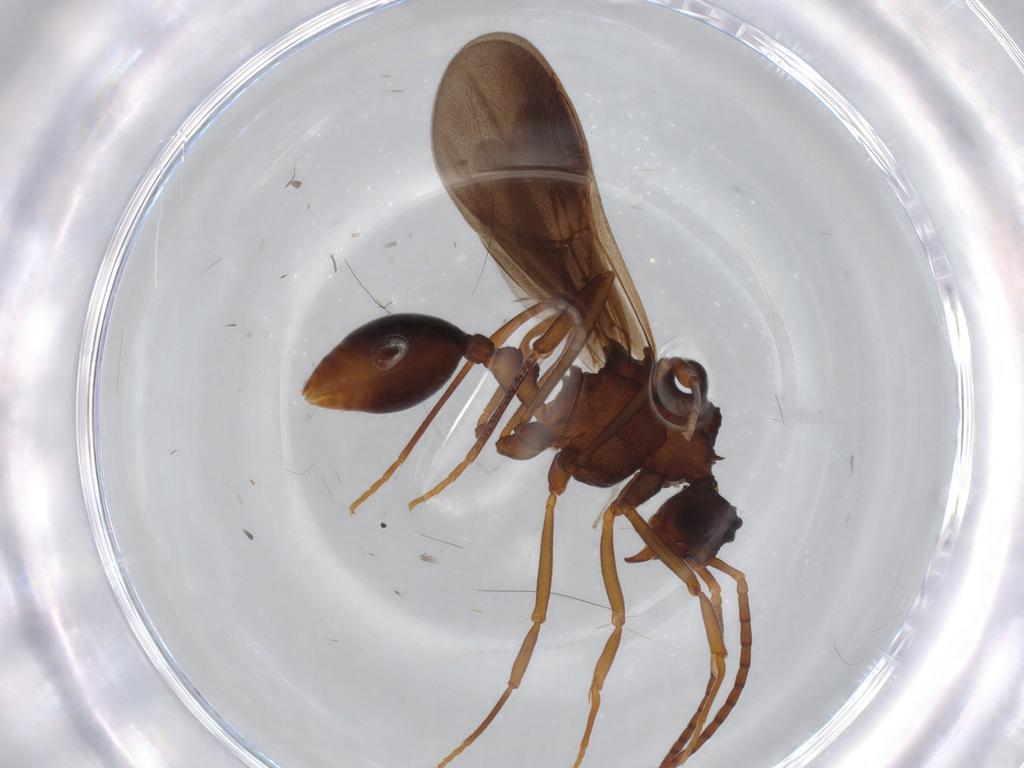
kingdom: Animalia
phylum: Arthropoda
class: Insecta
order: Hymenoptera
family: Formicidae
